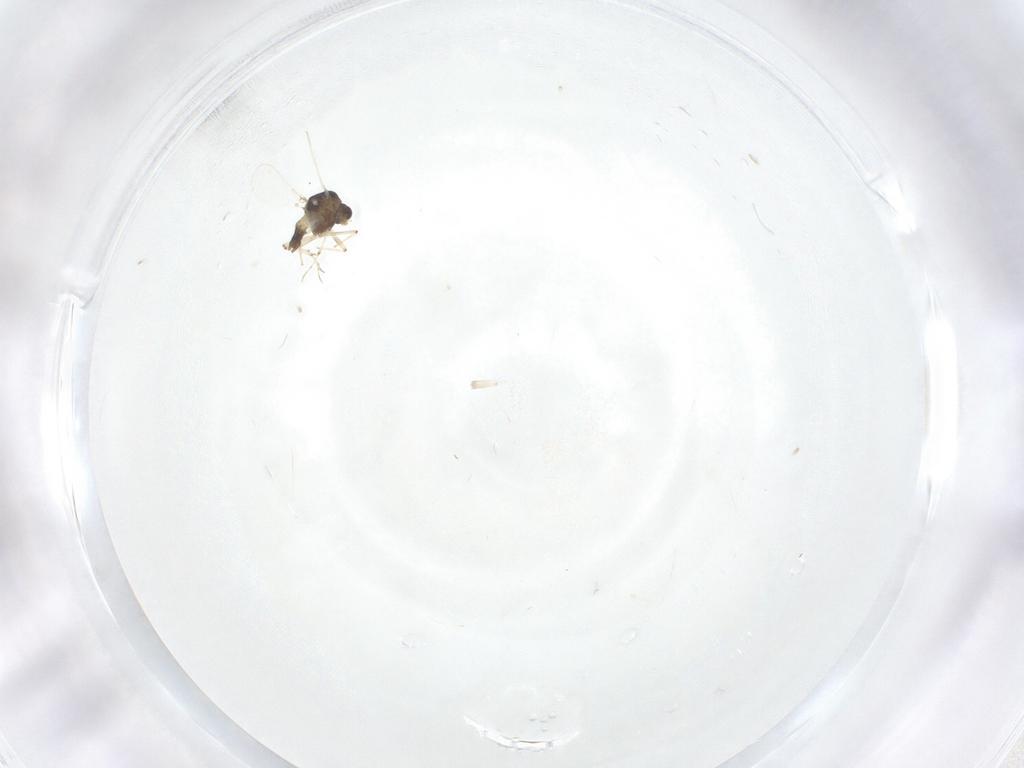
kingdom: Animalia
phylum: Arthropoda
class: Insecta
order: Diptera
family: Chironomidae
